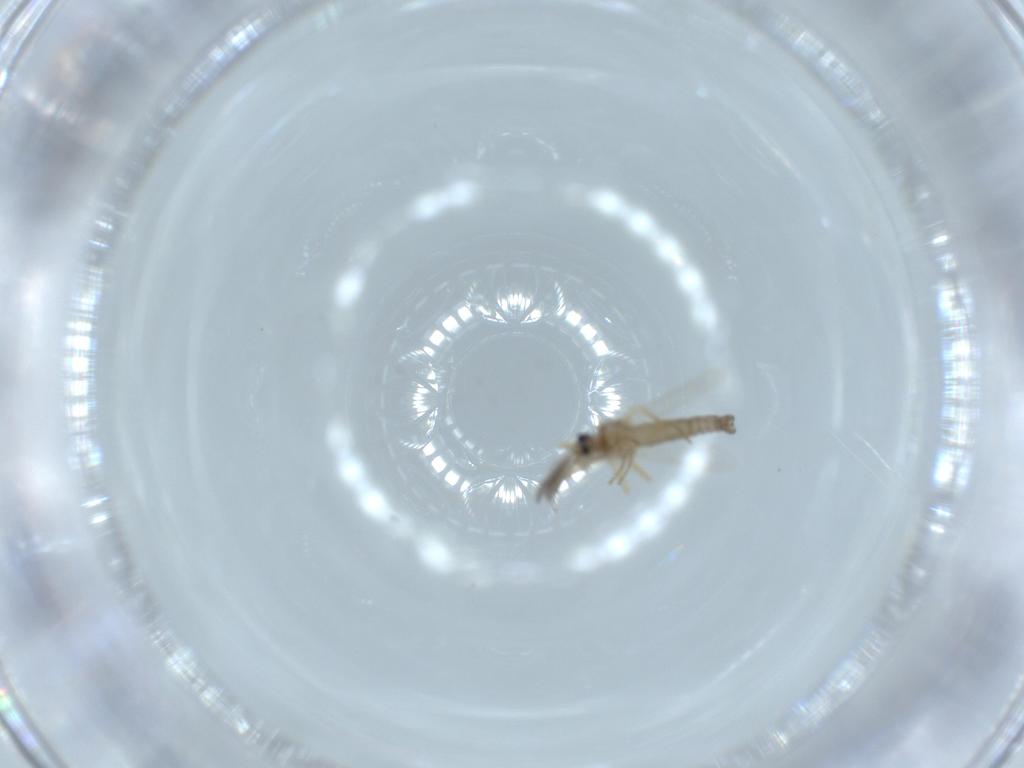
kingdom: Animalia
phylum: Arthropoda
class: Insecta
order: Diptera
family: Ceratopogonidae
